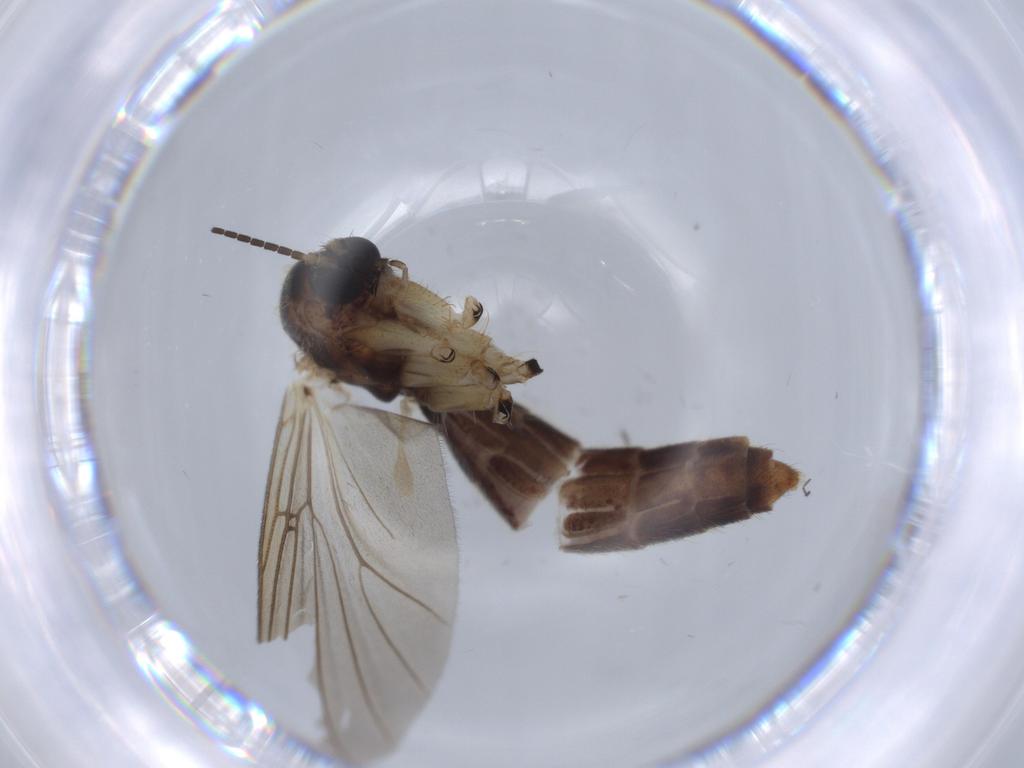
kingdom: Animalia
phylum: Arthropoda
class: Insecta
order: Diptera
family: Chironomidae
